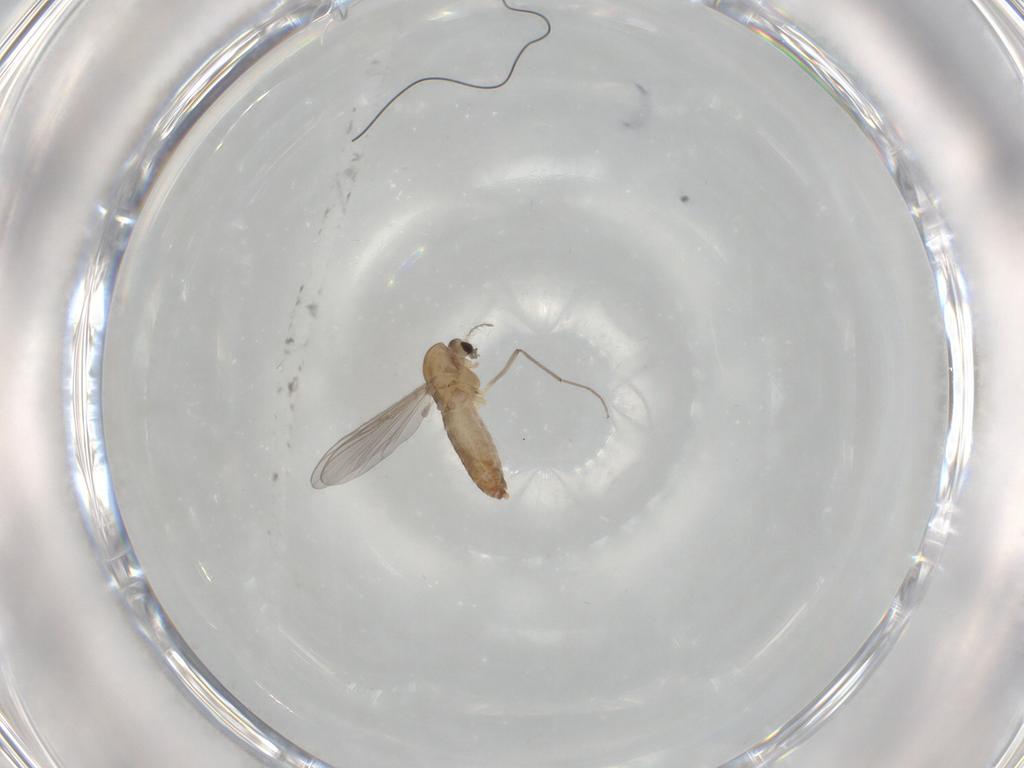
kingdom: Animalia
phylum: Arthropoda
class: Insecta
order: Diptera
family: Chironomidae
